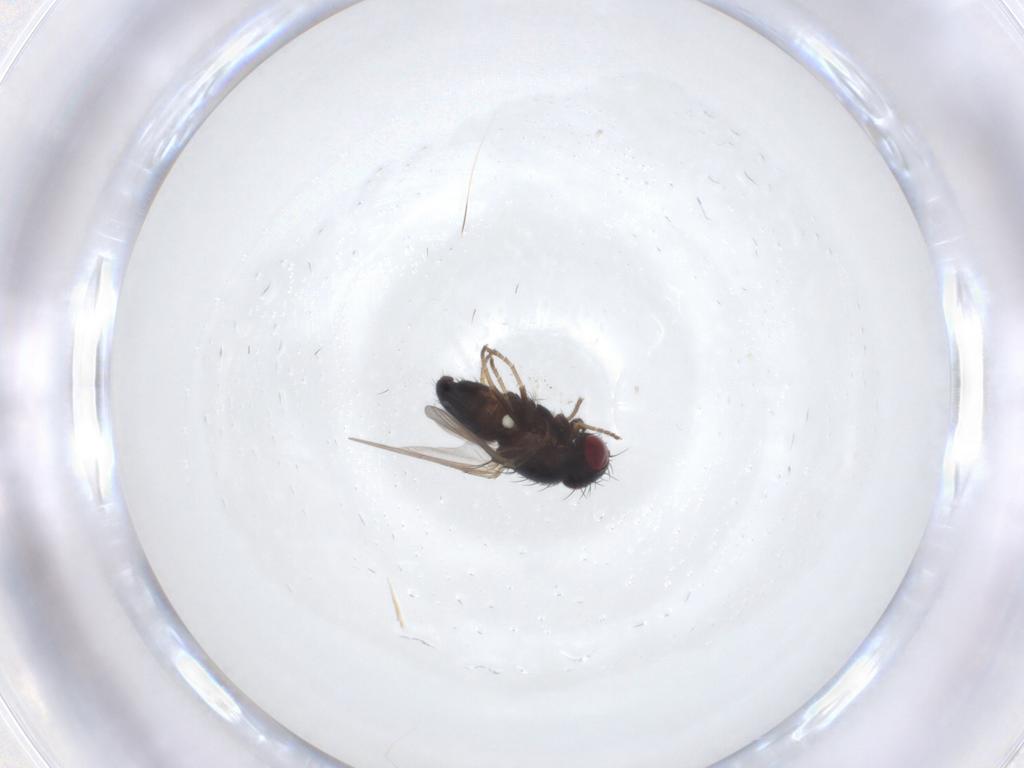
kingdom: Animalia
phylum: Arthropoda
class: Insecta
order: Diptera
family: Carnidae
